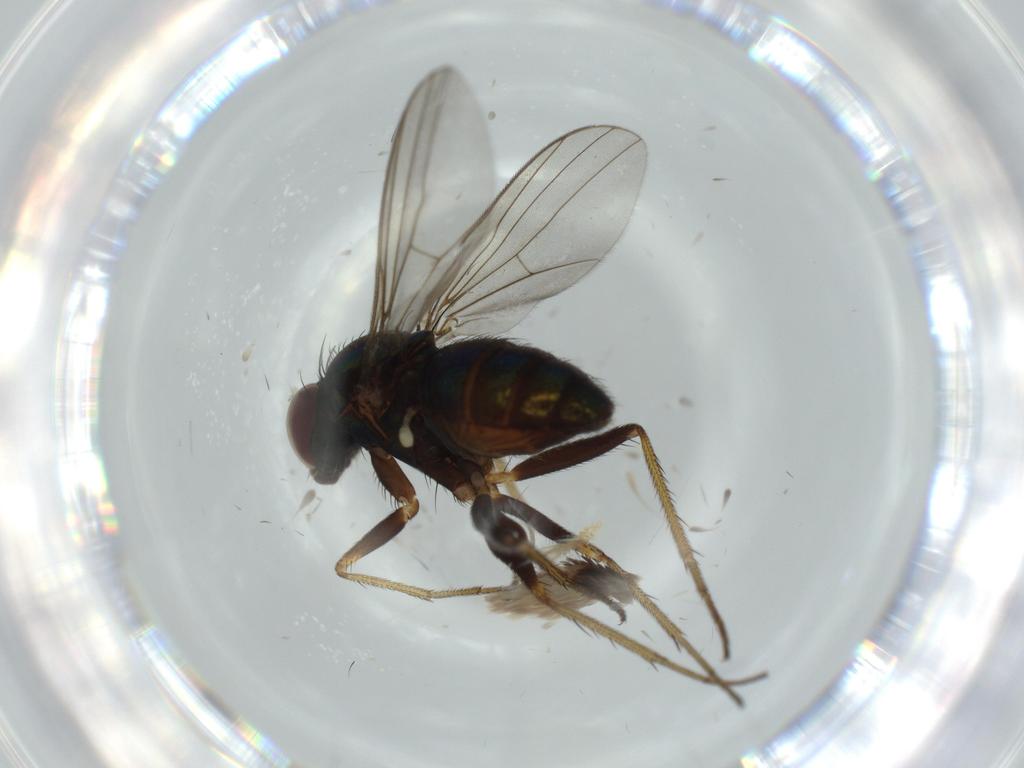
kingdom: Animalia
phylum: Arthropoda
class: Insecta
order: Diptera
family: Dolichopodidae
